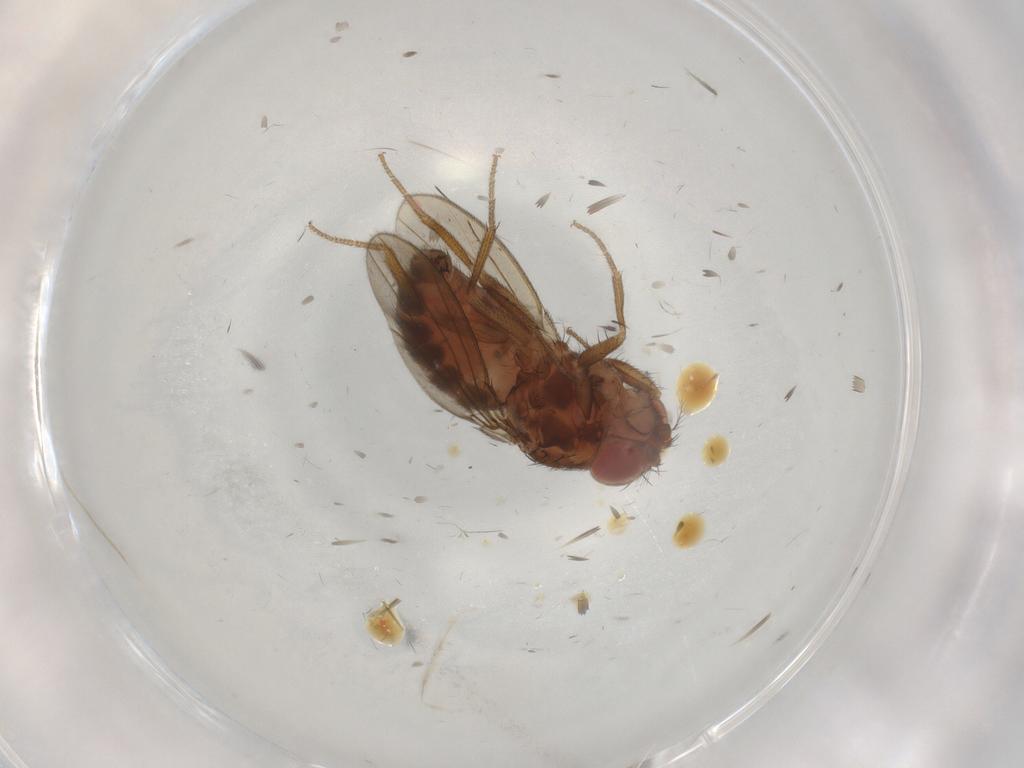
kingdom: Animalia
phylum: Arthropoda
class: Insecta
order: Diptera
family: Drosophilidae
